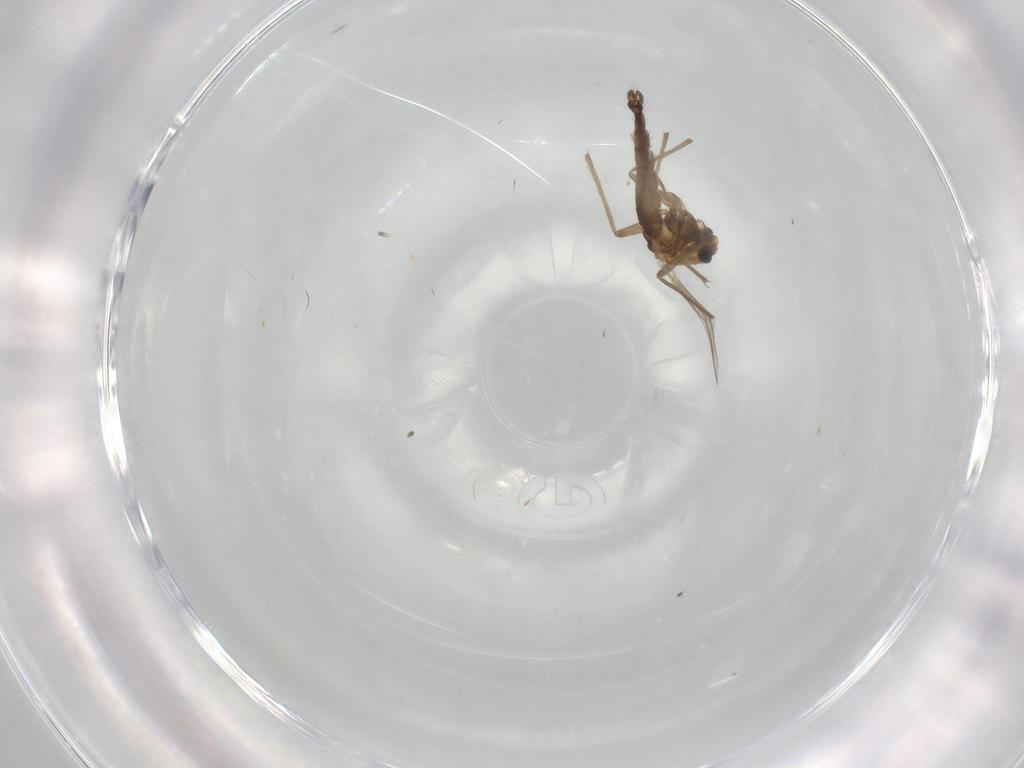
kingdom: Animalia
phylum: Arthropoda
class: Insecta
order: Diptera
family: Chironomidae
